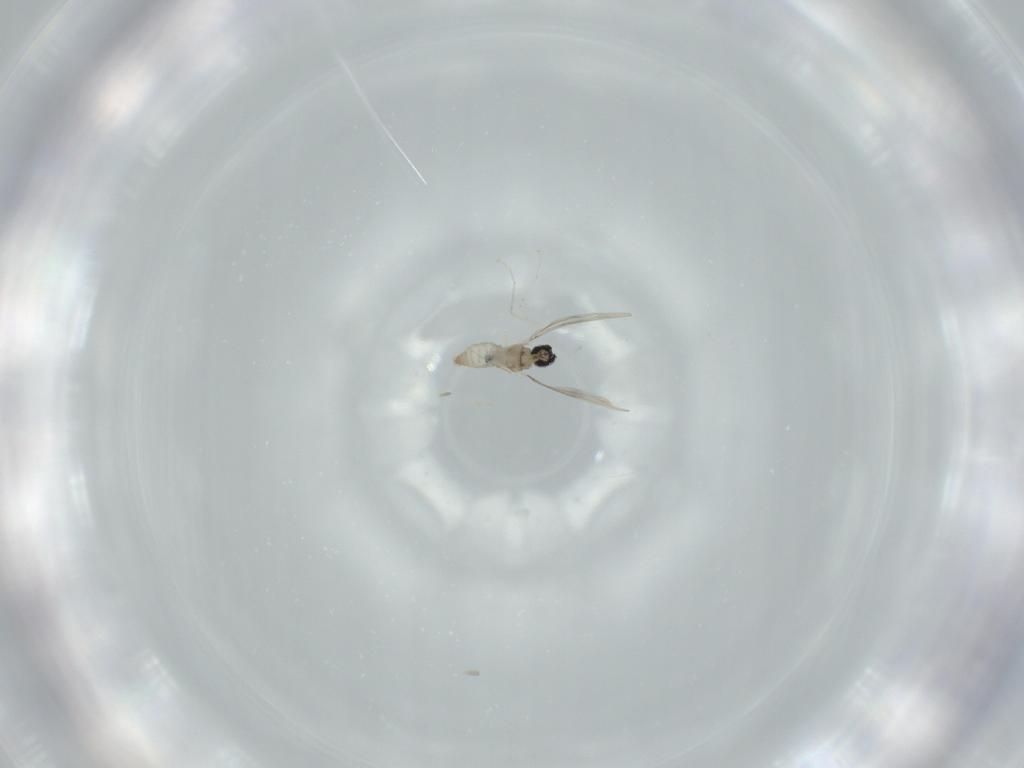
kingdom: Animalia
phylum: Arthropoda
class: Insecta
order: Diptera
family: Cecidomyiidae
